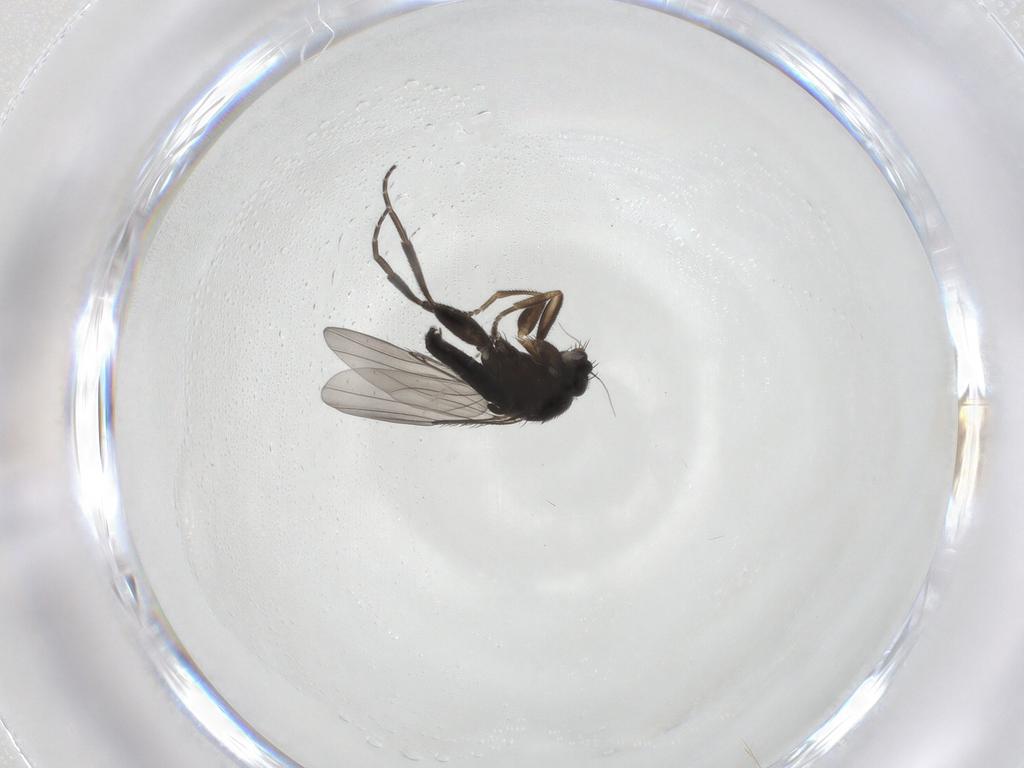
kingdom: Animalia
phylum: Arthropoda
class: Insecta
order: Diptera
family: Phoridae
